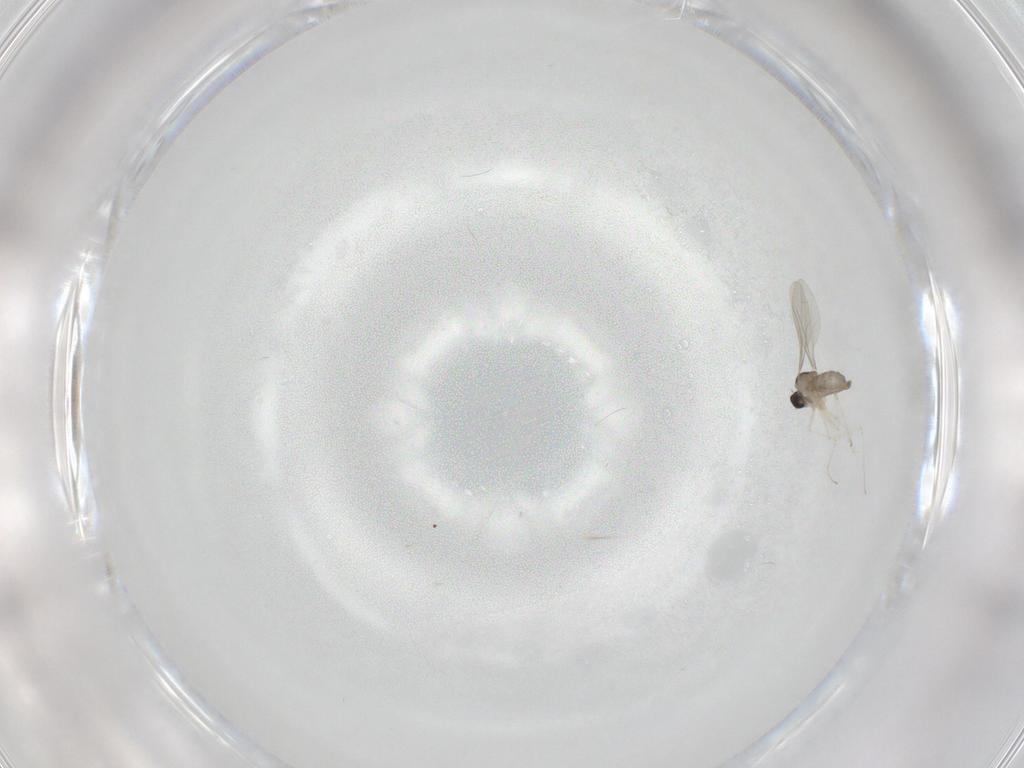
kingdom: Animalia
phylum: Arthropoda
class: Insecta
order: Diptera
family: Cecidomyiidae
